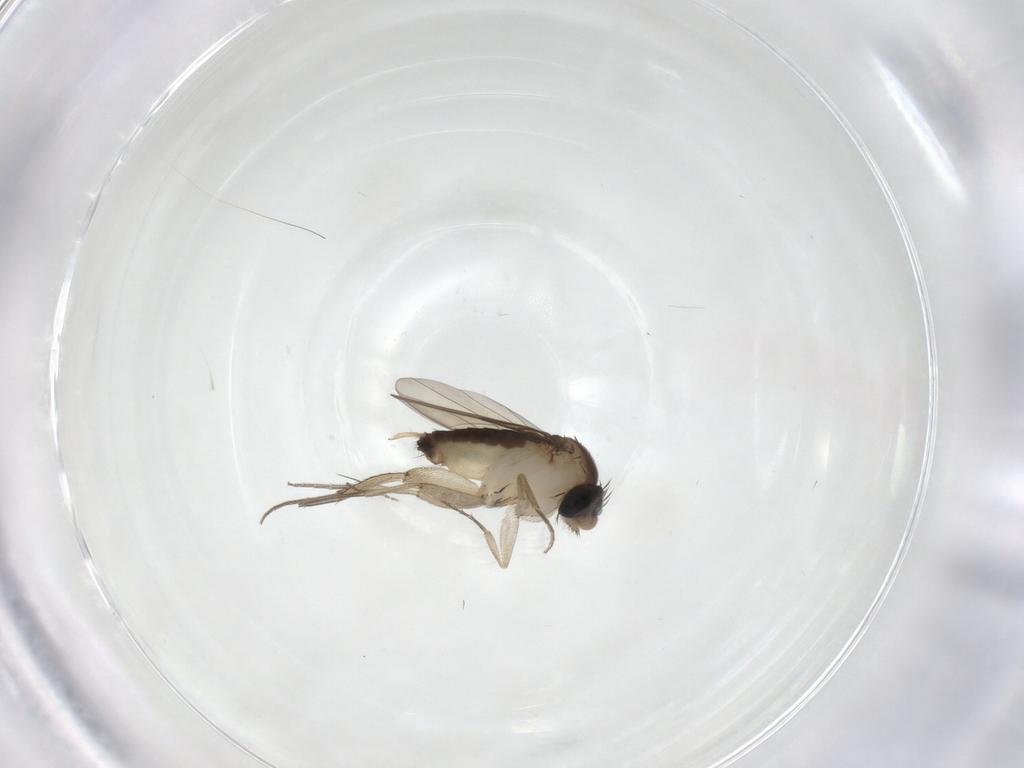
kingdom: Animalia
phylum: Arthropoda
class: Insecta
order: Diptera
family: Phoridae
